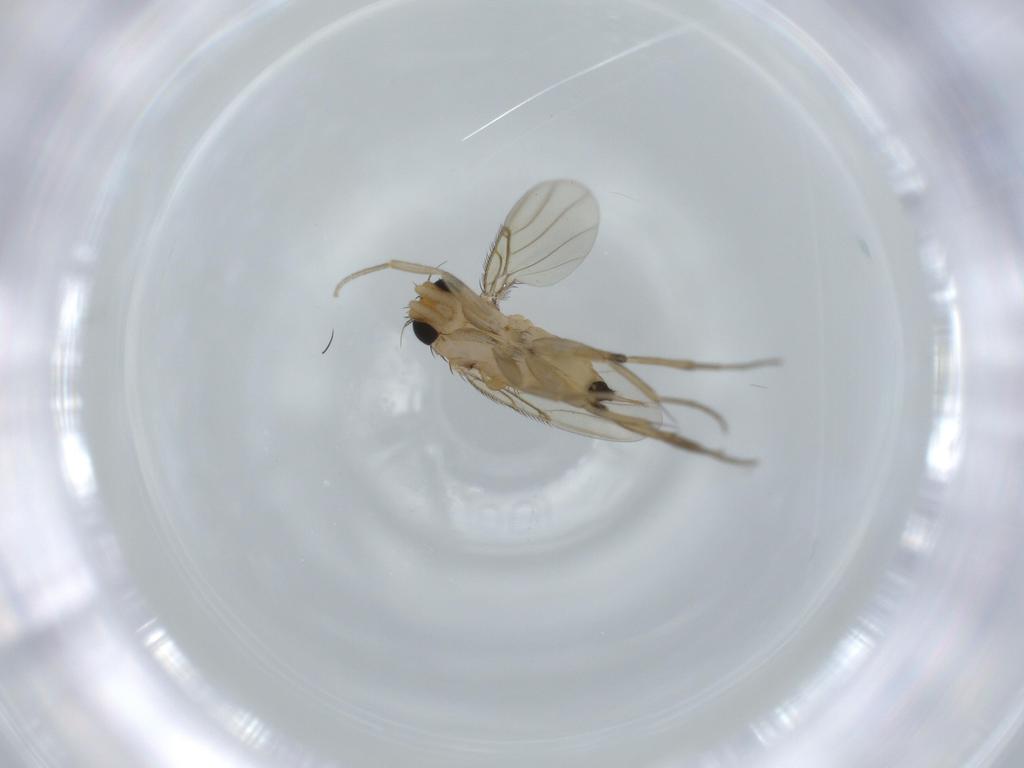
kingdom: Animalia
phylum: Arthropoda
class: Insecta
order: Diptera
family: Phoridae
